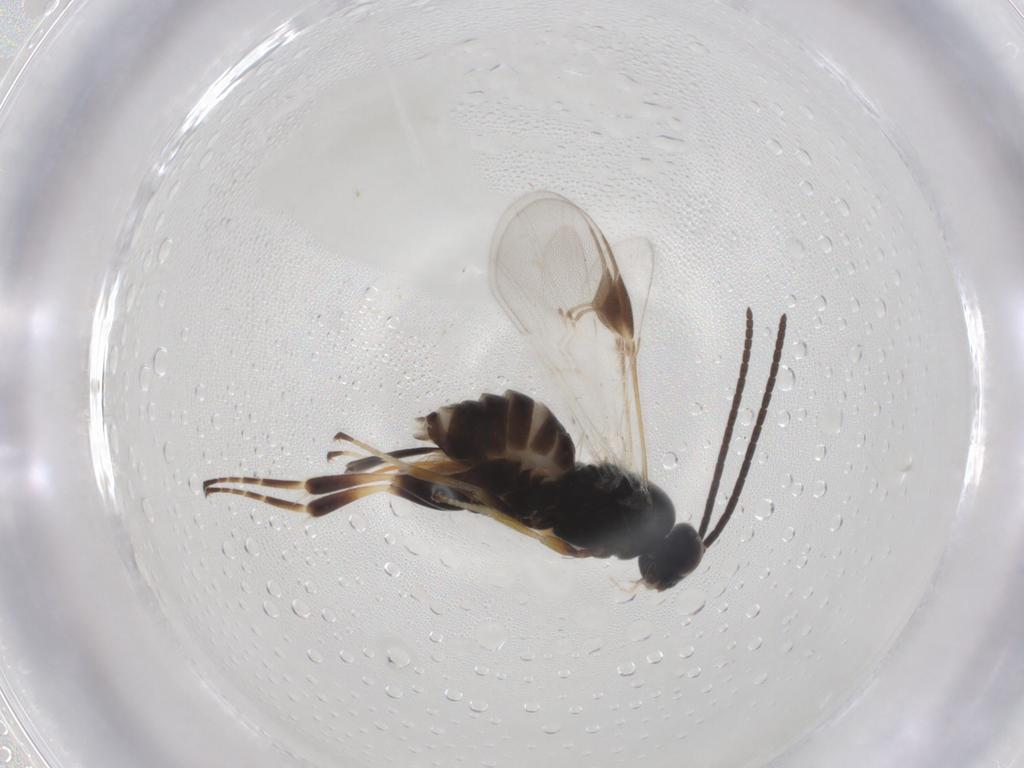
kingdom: Animalia
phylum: Arthropoda
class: Insecta
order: Hymenoptera
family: Braconidae
